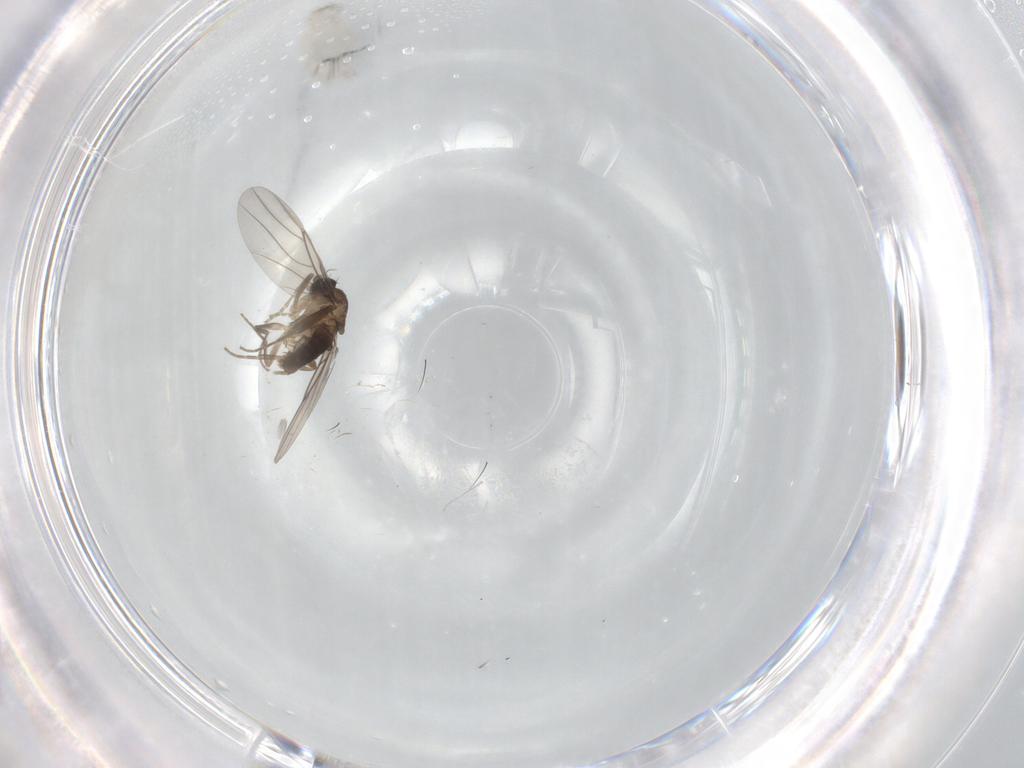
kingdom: Animalia
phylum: Arthropoda
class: Insecta
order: Diptera
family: Phoridae
